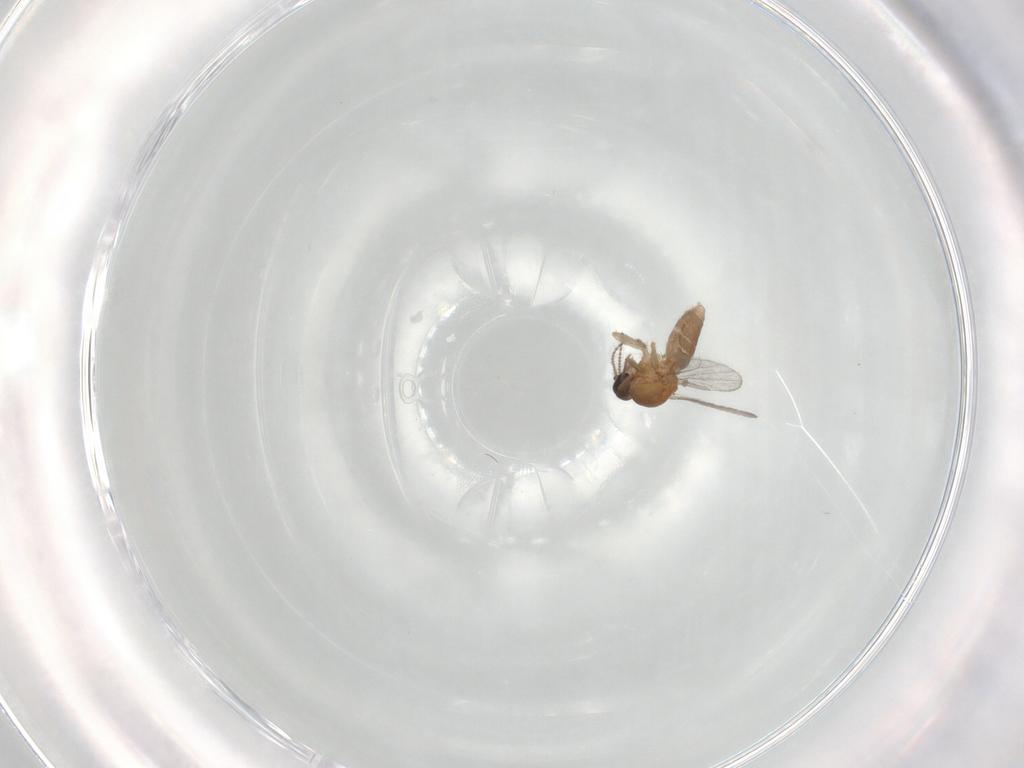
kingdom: Animalia
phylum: Arthropoda
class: Insecta
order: Diptera
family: Ceratopogonidae
